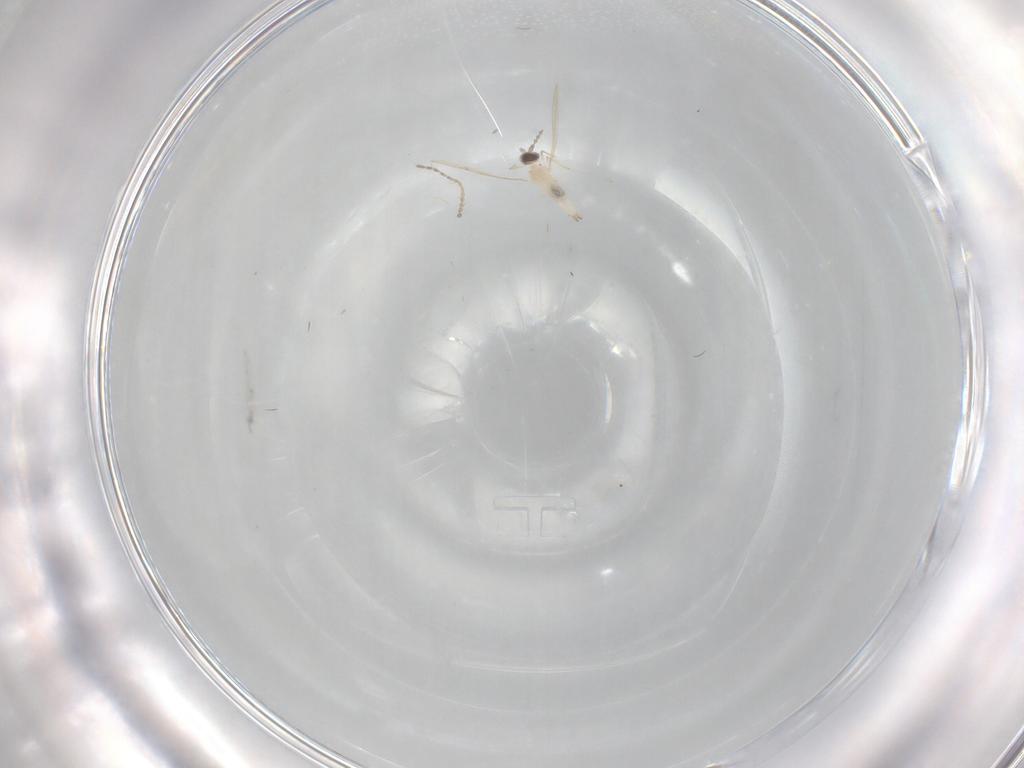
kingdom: Animalia
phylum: Arthropoda
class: Insecta
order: Diptera
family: Cecidomyiidae
